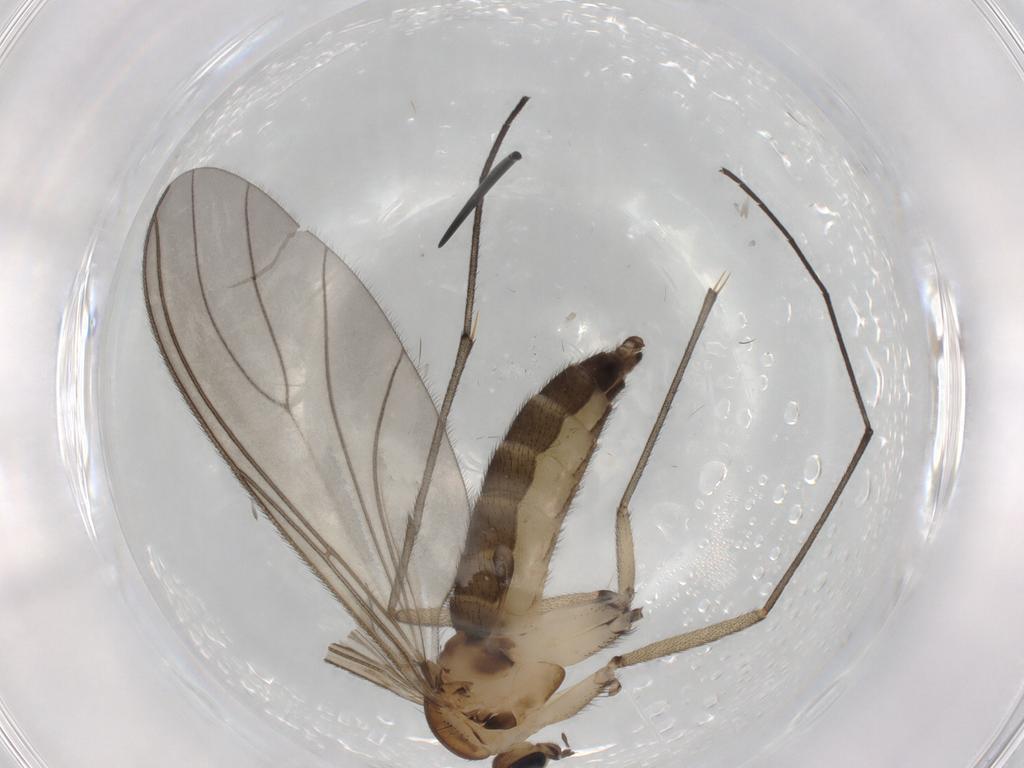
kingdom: Animalia
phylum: Arthropoda
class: Insecta
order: Diptera
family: Sciaridae
